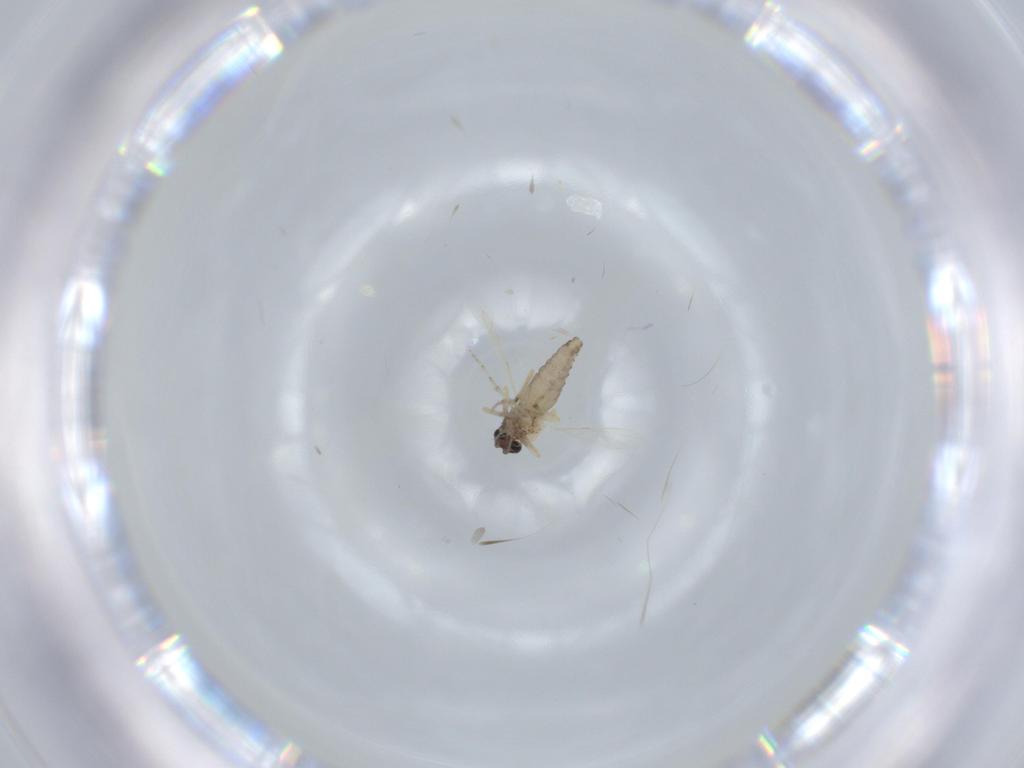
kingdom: Animalia
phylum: Arthropoda
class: Insecta
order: Diptera
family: Ceratopogonidae
